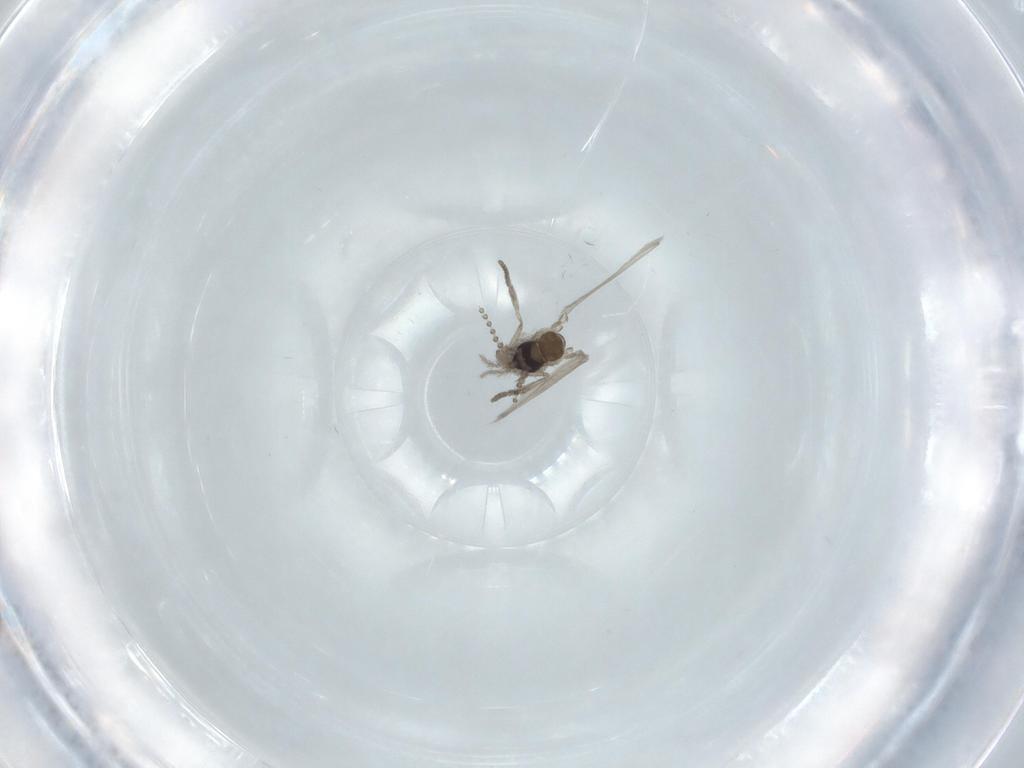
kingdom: Animalia
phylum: Arthropoda
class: Insecta
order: Diptera
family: Psychodidae
